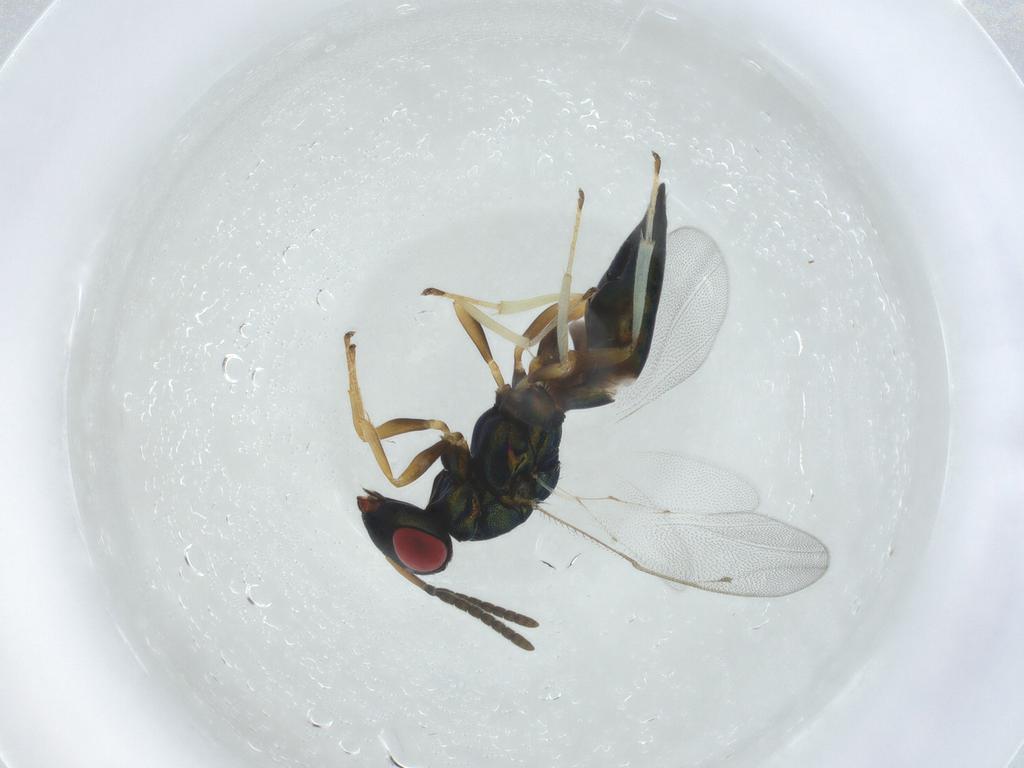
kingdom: Animalia
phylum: Arthropoda
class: Insecta
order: Hymenoptera
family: Pteromalidae
